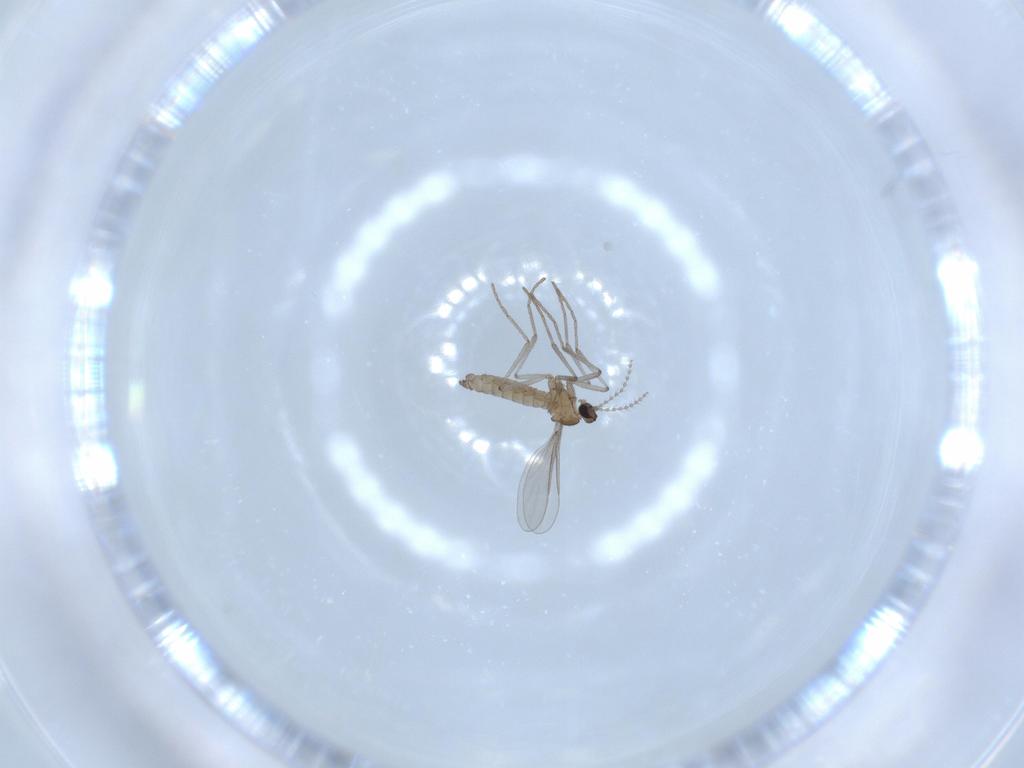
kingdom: Animalia
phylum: Arthropoda
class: Insecta
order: Diptera
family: Cecidomyiidae
